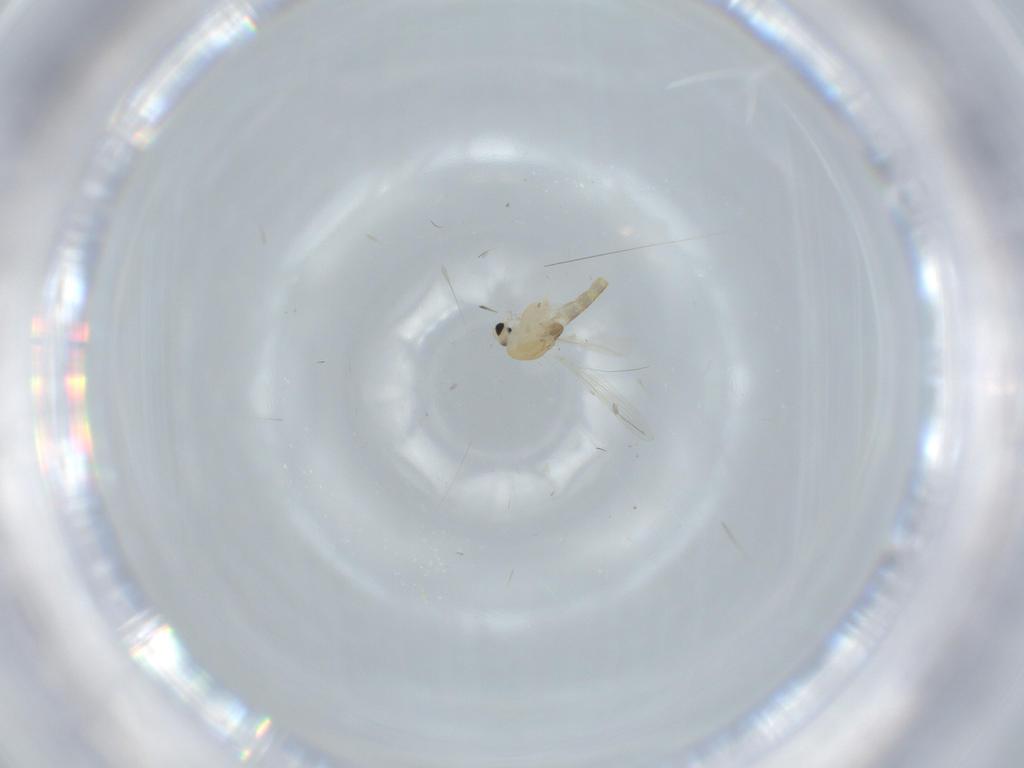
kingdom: Animalia
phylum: Arthropoda
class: Insecta
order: Diptera
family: Chironomidae
